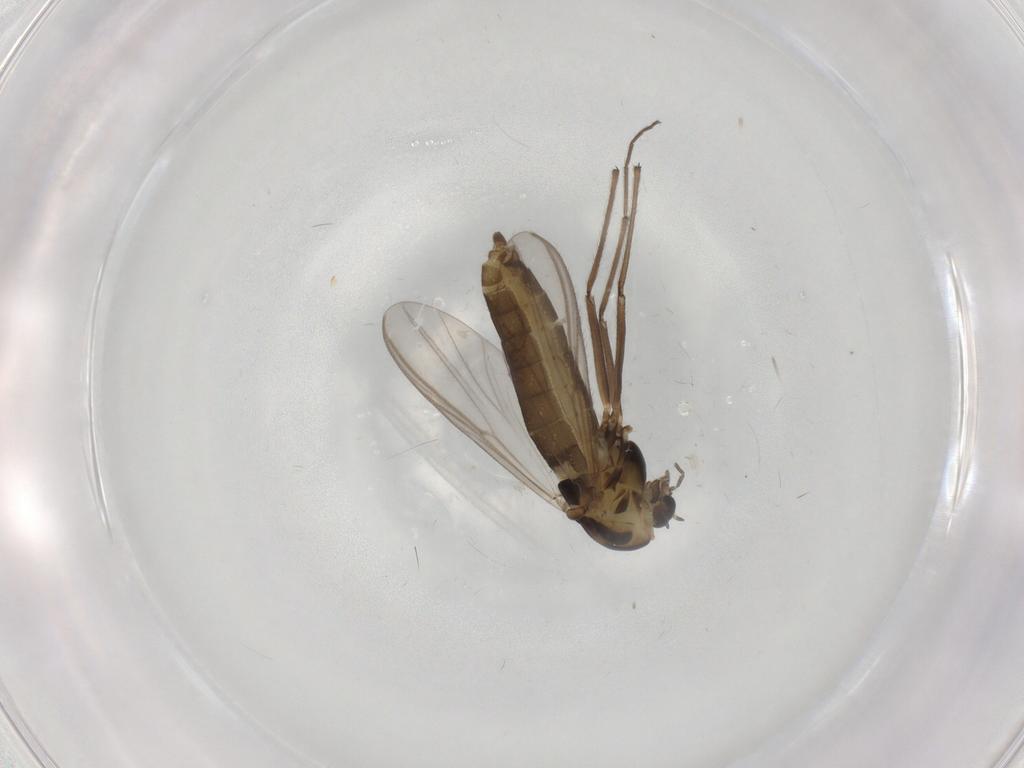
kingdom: Animalia
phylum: Arthropoda
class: Insecta
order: Diptera
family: Chironomidae
